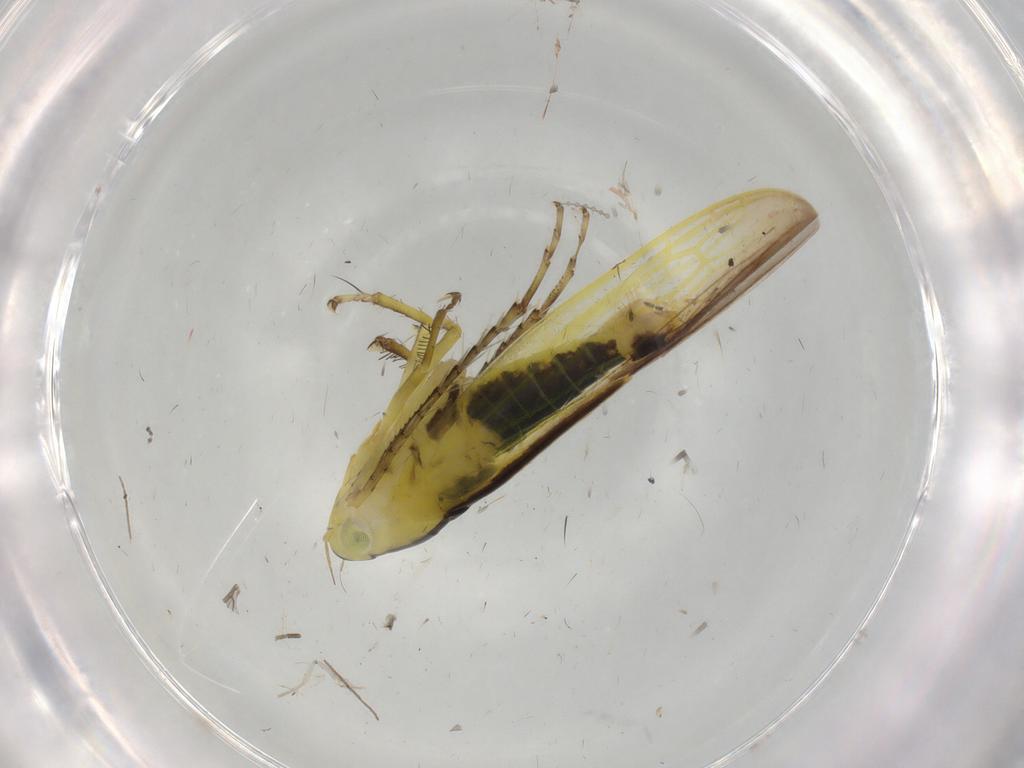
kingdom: Animalia
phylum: Arthropoda
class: Insecta
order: Hemiptera
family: Cicadellidae
